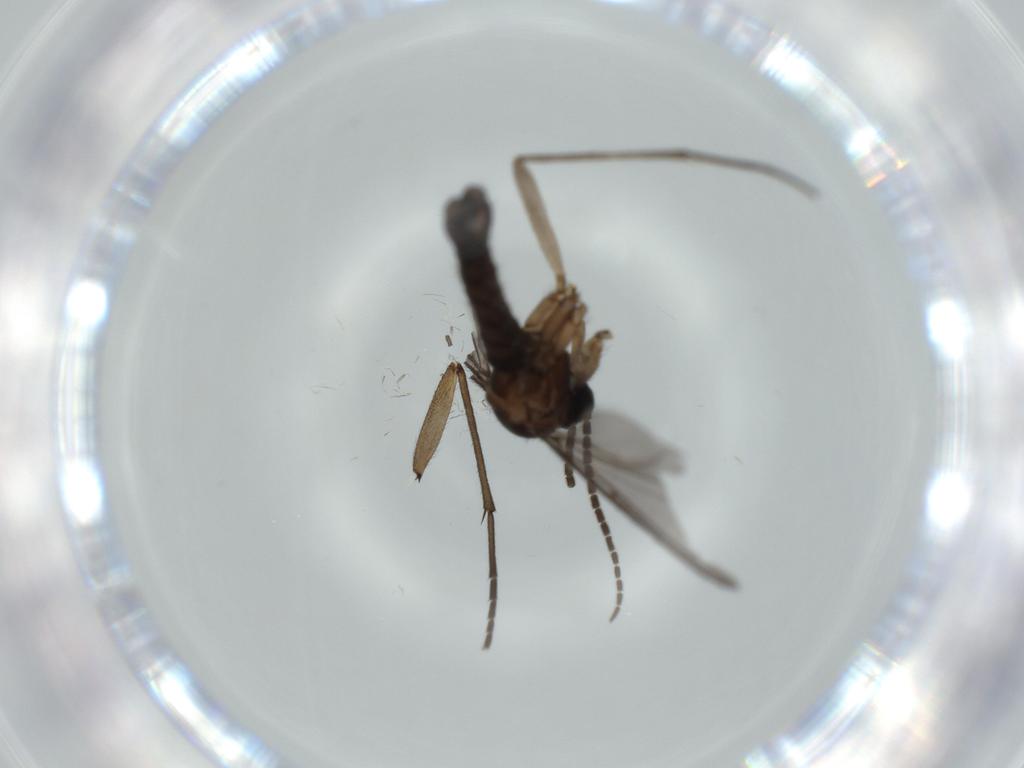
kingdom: Animalia
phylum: Arthropoda
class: Insecta
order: Diptera
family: Sciaridae
